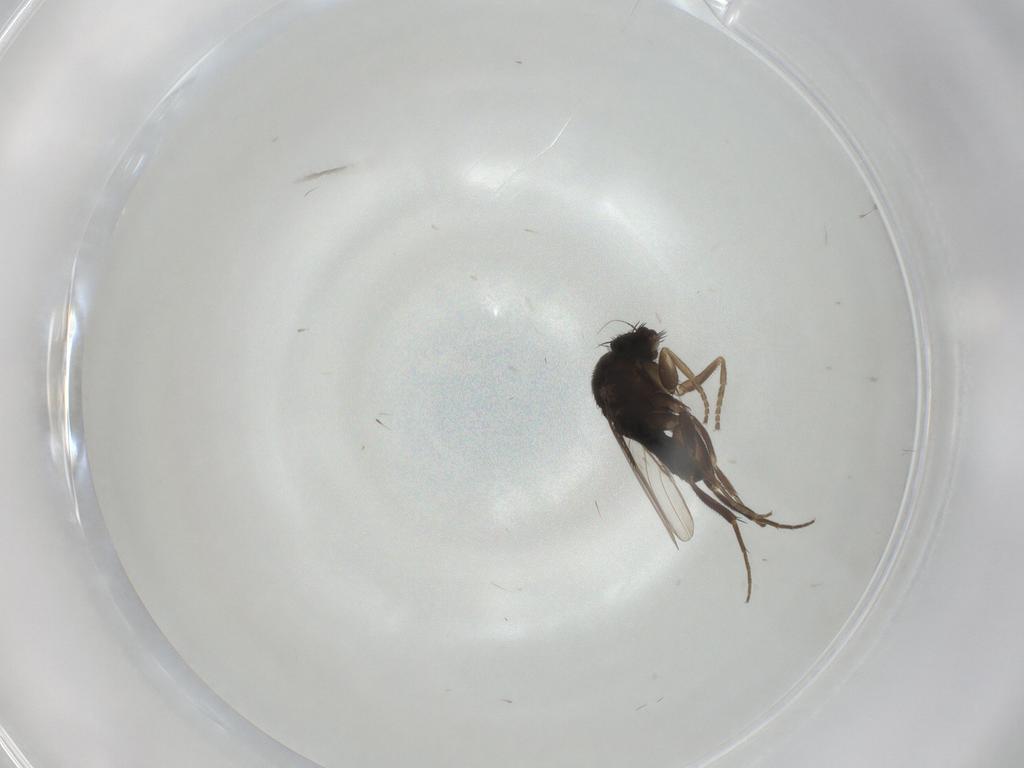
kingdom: Animalia
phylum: Arthropoda
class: Insecta
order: Diptera
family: Phoridae
